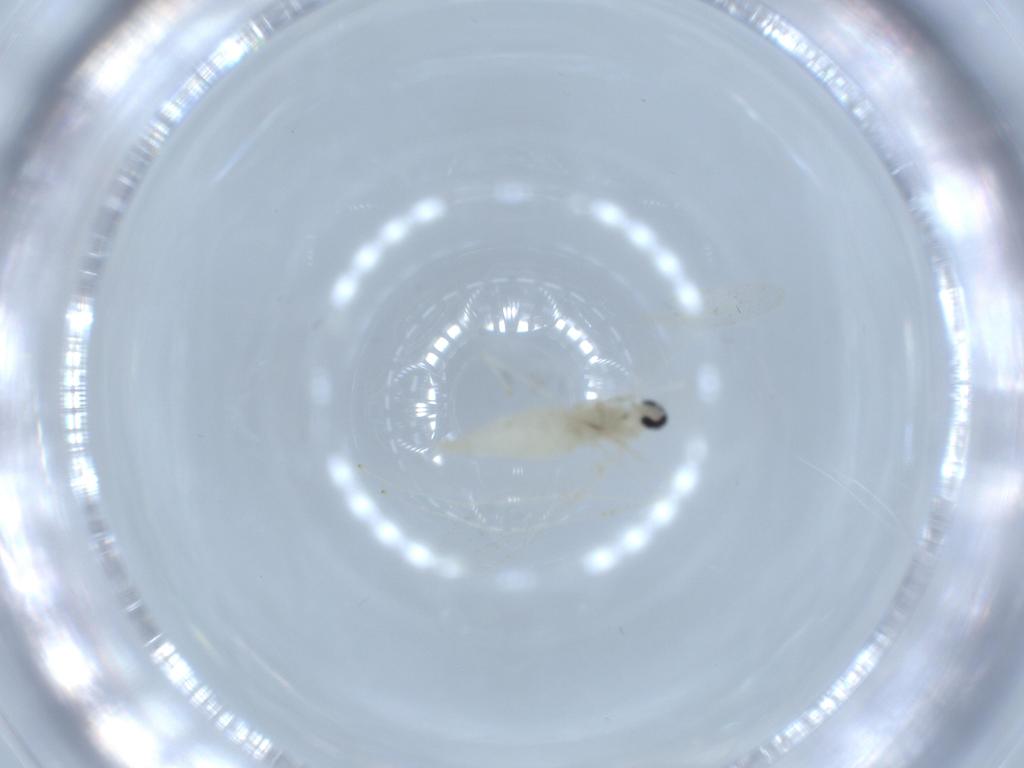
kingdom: Animalia
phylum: Arthropoda
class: Insecta
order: Diptera
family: Cecidomyiidae
